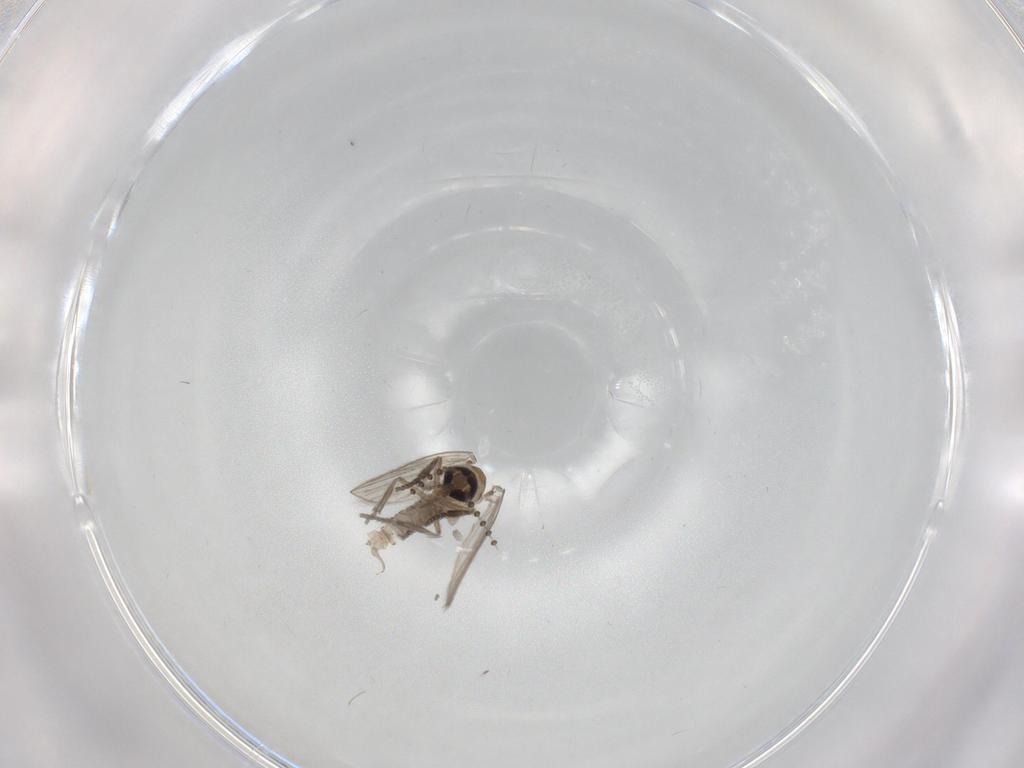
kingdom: Animalia
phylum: Arthropoda
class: Insecta
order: Diptera
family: Psychodidae
